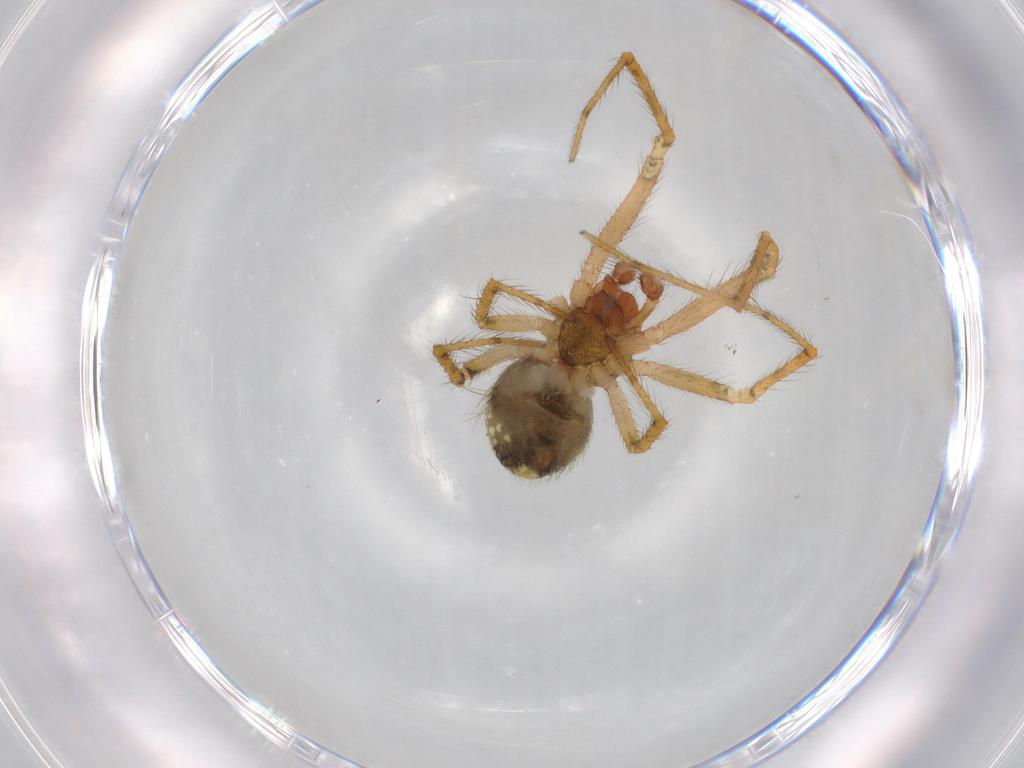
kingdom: Animalia
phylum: Arthropoda
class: Arachnida
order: Araneae
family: Theridiidae
